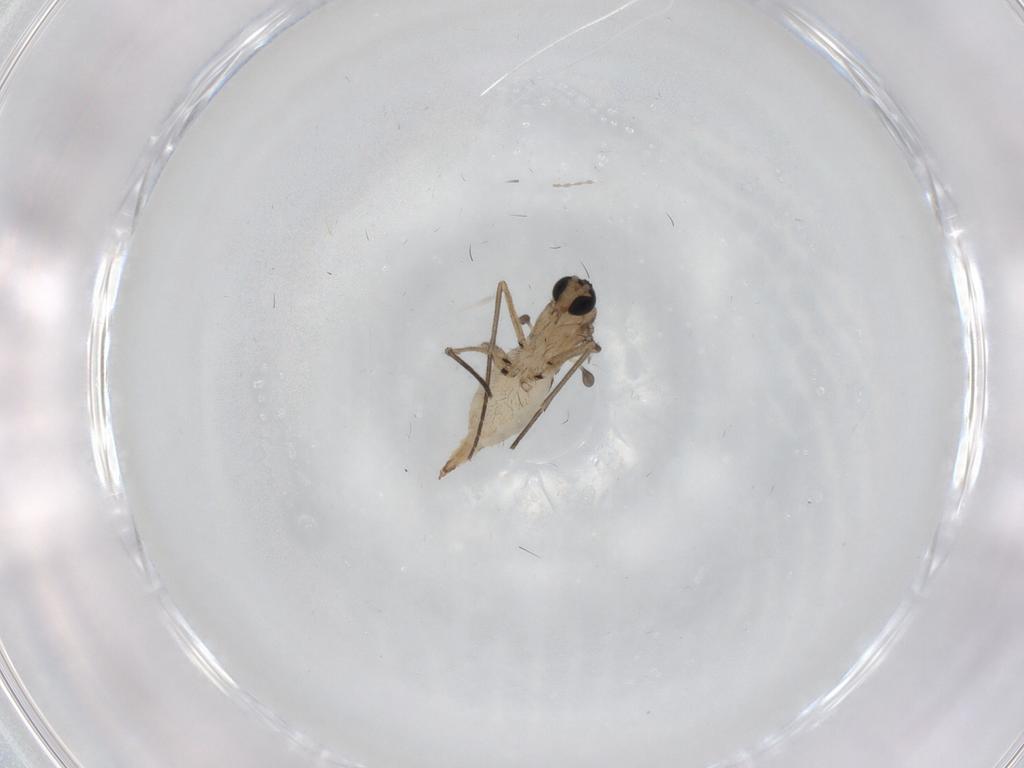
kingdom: Animalia
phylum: Arthropoda
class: Insecta
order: Diptera
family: Sciaridae
